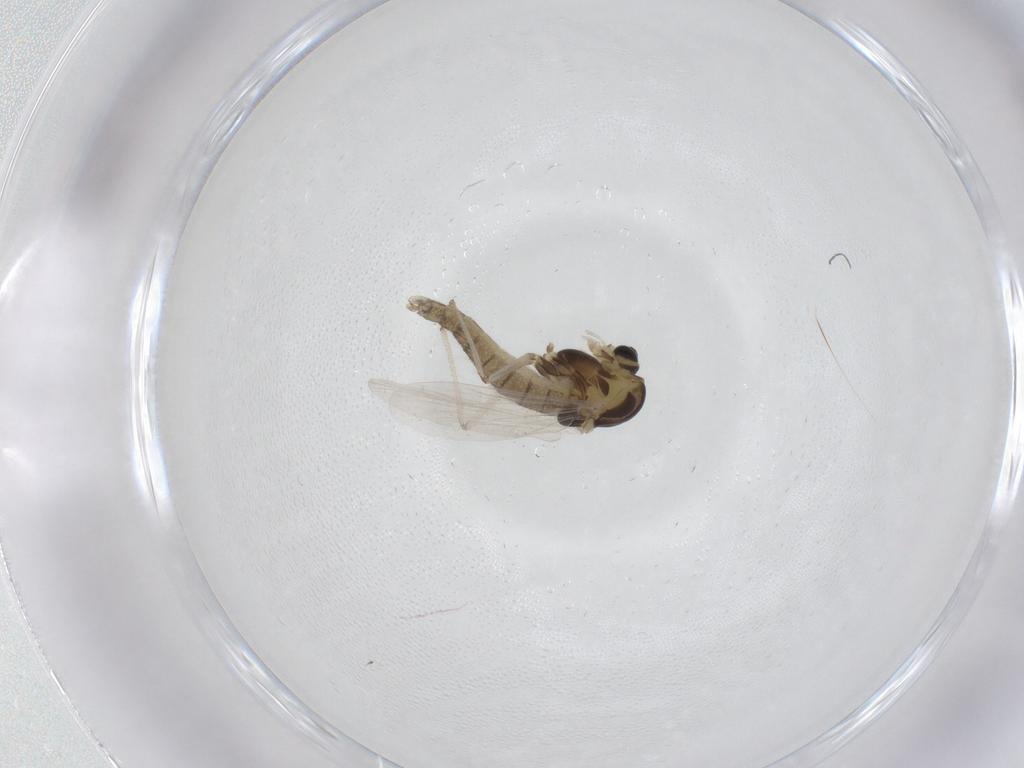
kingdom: Animalia
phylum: Arthropoda
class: Insecta
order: Diptera
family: Chironomidae
